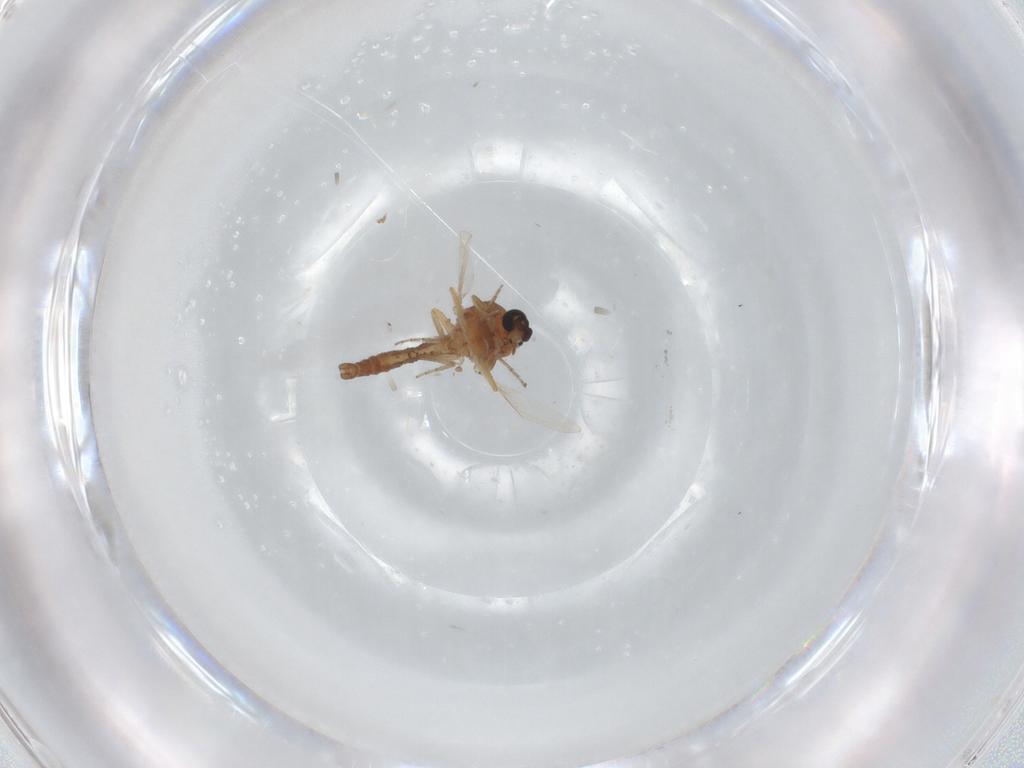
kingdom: Animalia
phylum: Arthropoda
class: Insecta
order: Diptera
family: Ceratopogonidae
